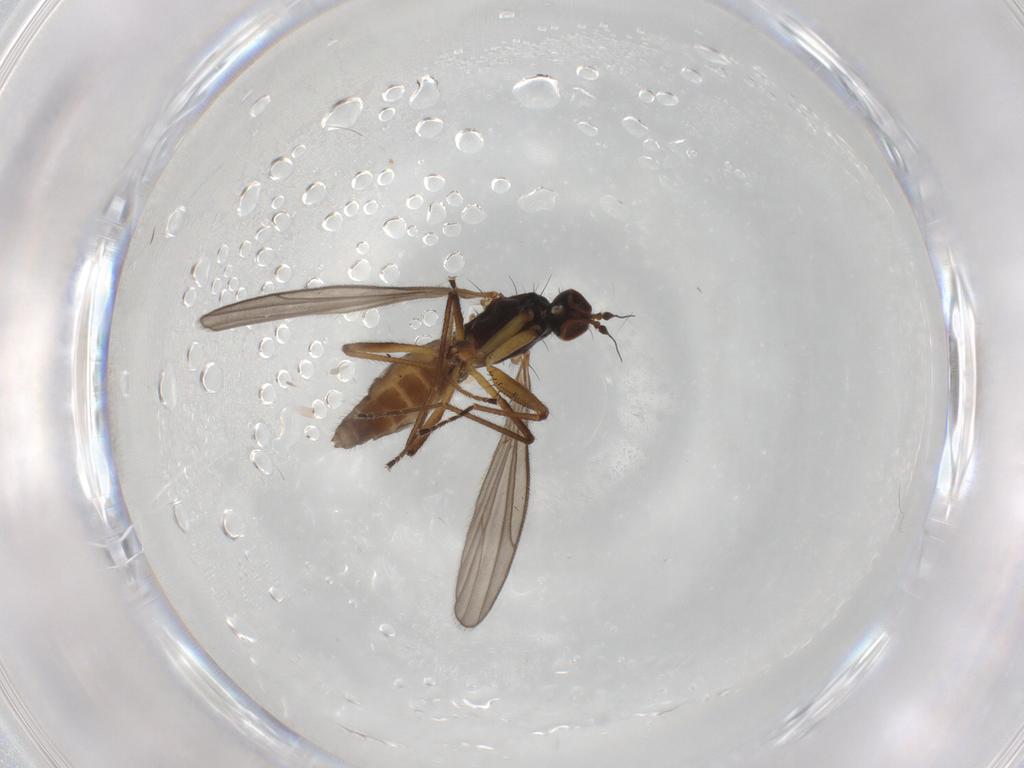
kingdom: Animalia
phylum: Arthropoda
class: Insecta
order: Diptera
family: Empididae
